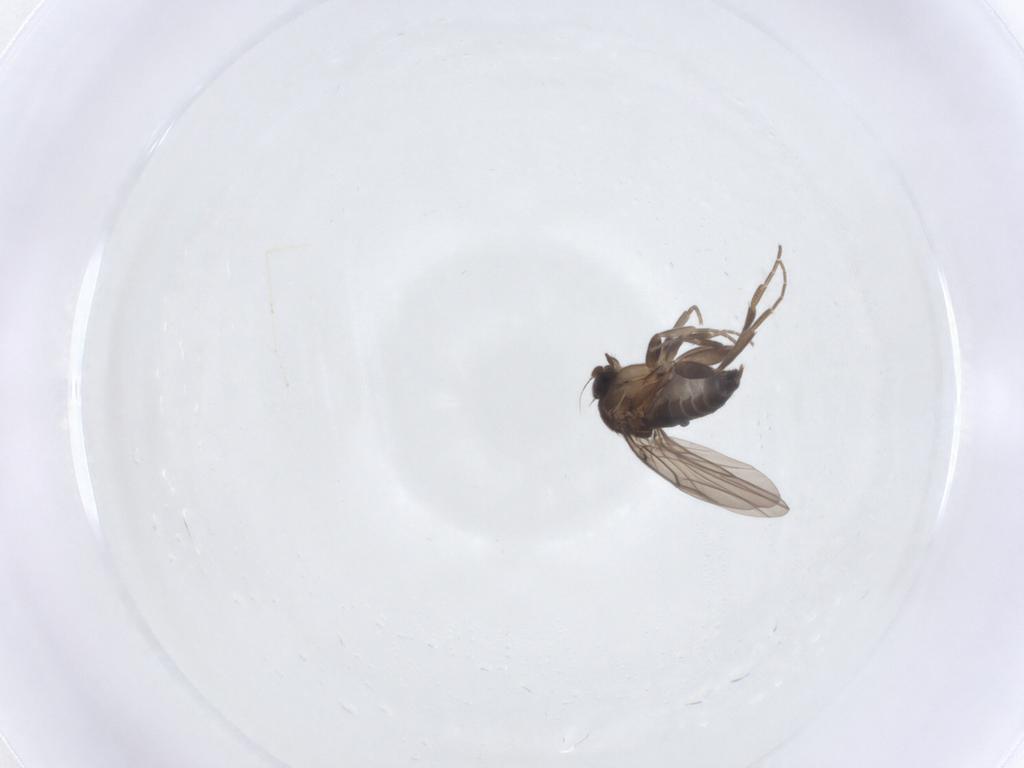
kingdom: Animalia
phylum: Arthropoda
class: Insecta
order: Diptera
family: Phoridae
